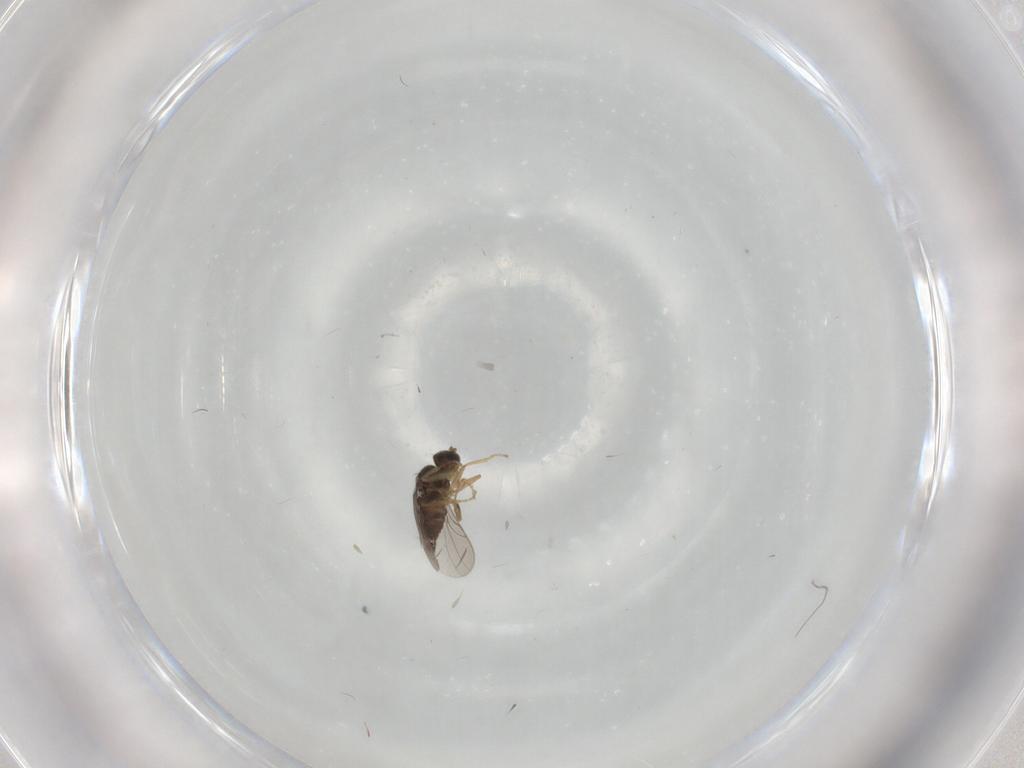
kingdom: Animalia
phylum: Arthropoda
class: Insecta
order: Diptera
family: Hybotidae
